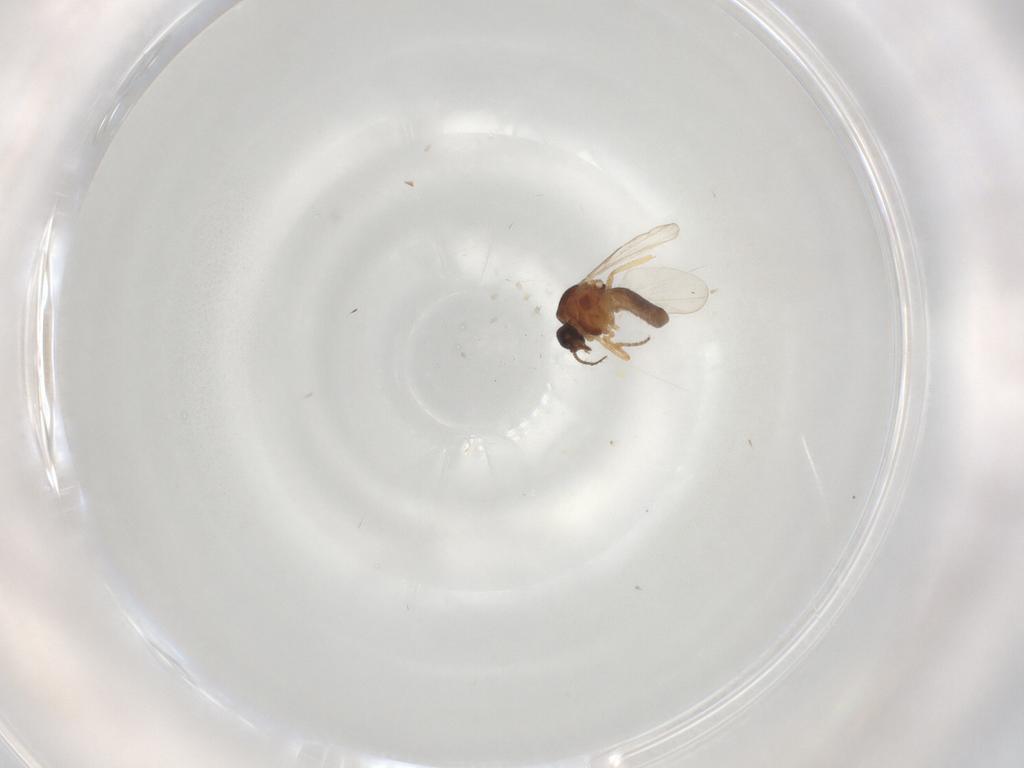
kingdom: Animalia
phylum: Arthropoda
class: Insecta
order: Diptera
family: Ceratopogonidae
